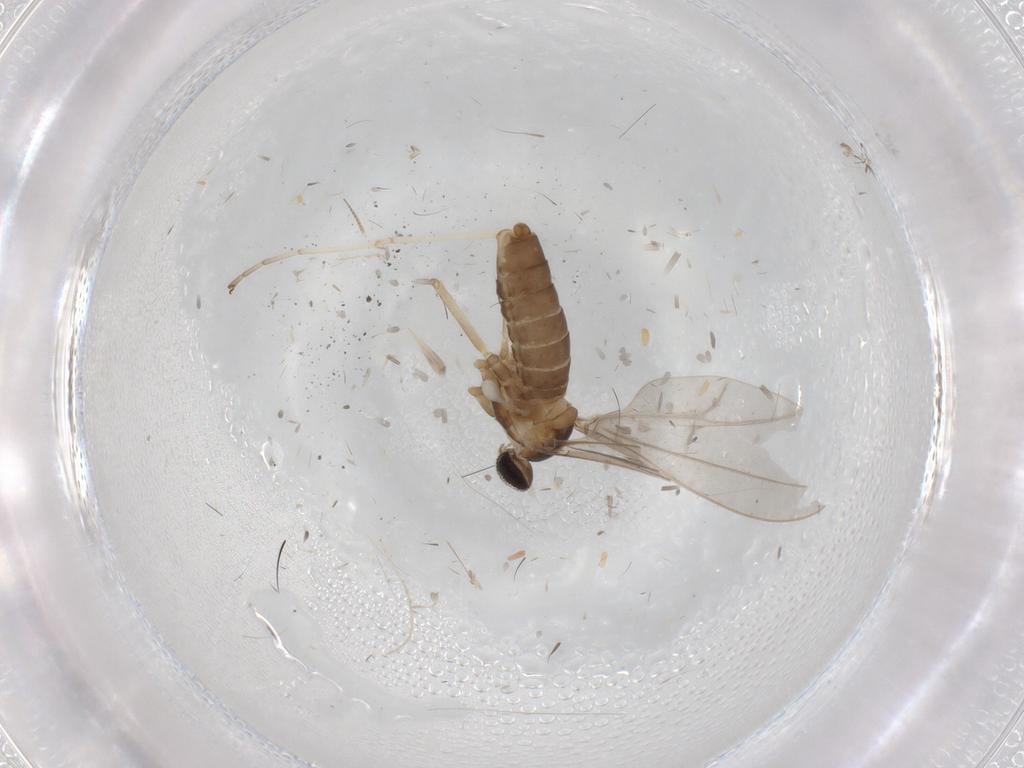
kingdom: Animalia
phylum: Arthropoda
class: Insecta
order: Diptera
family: Cecidomyiidae
